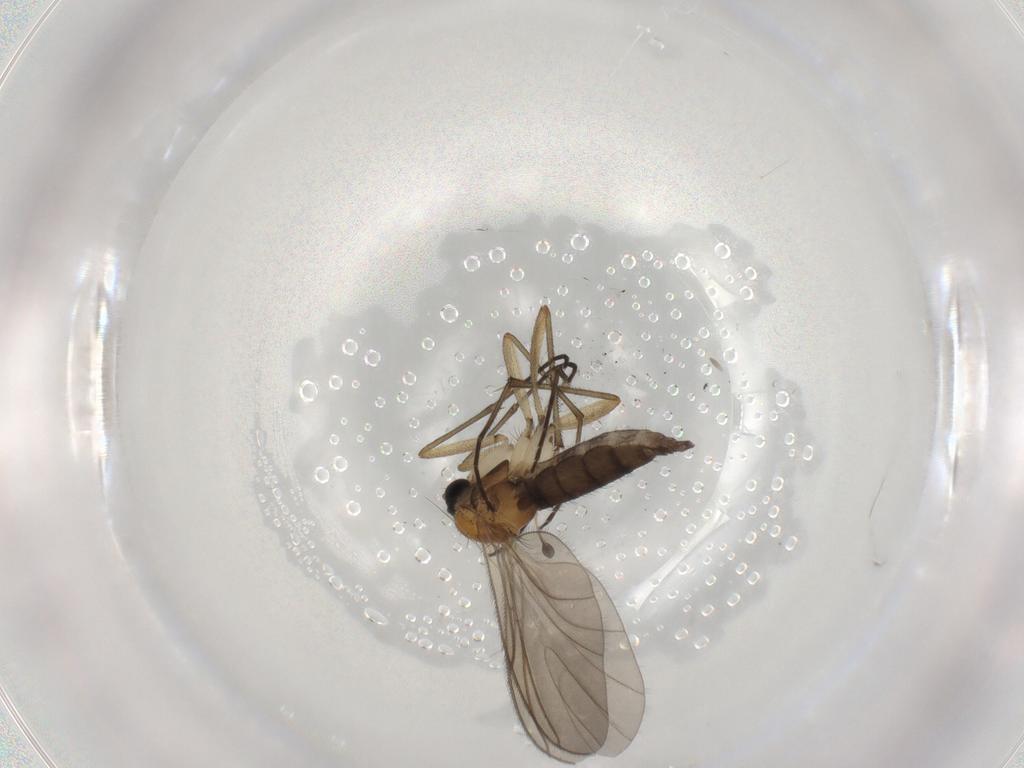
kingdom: Animalia
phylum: Arthropoda
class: Insecta
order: Diptera
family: Sciaridae
